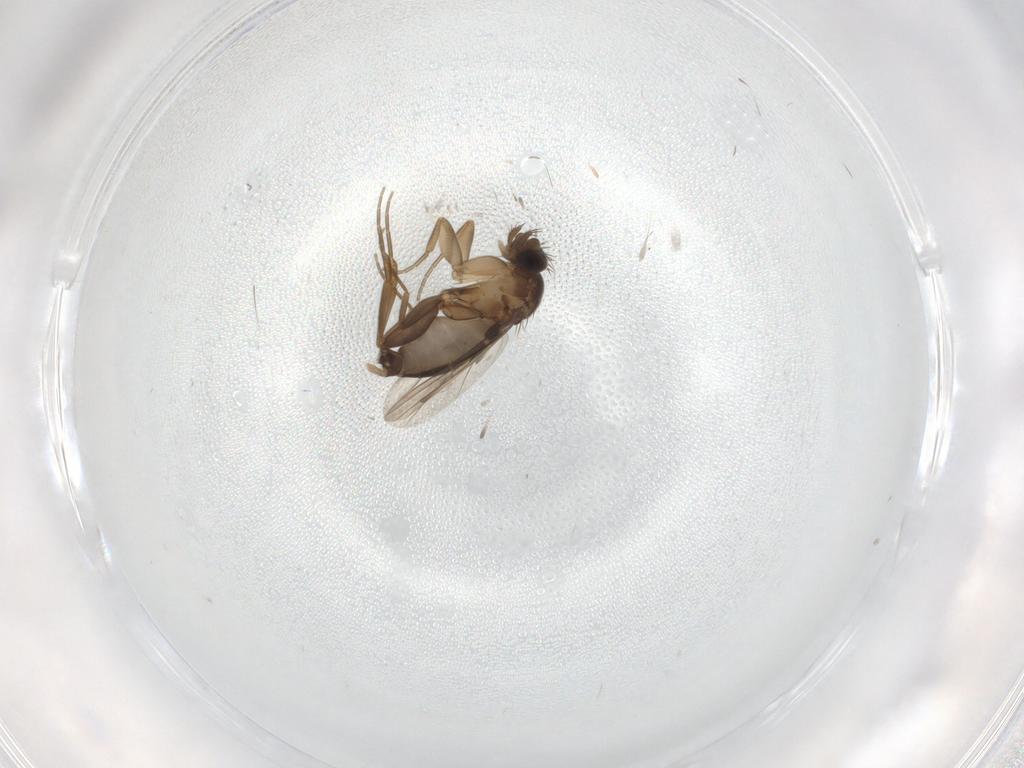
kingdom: Animalia
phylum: Arthropoda
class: Insecta
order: Diptera
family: Phoridae
